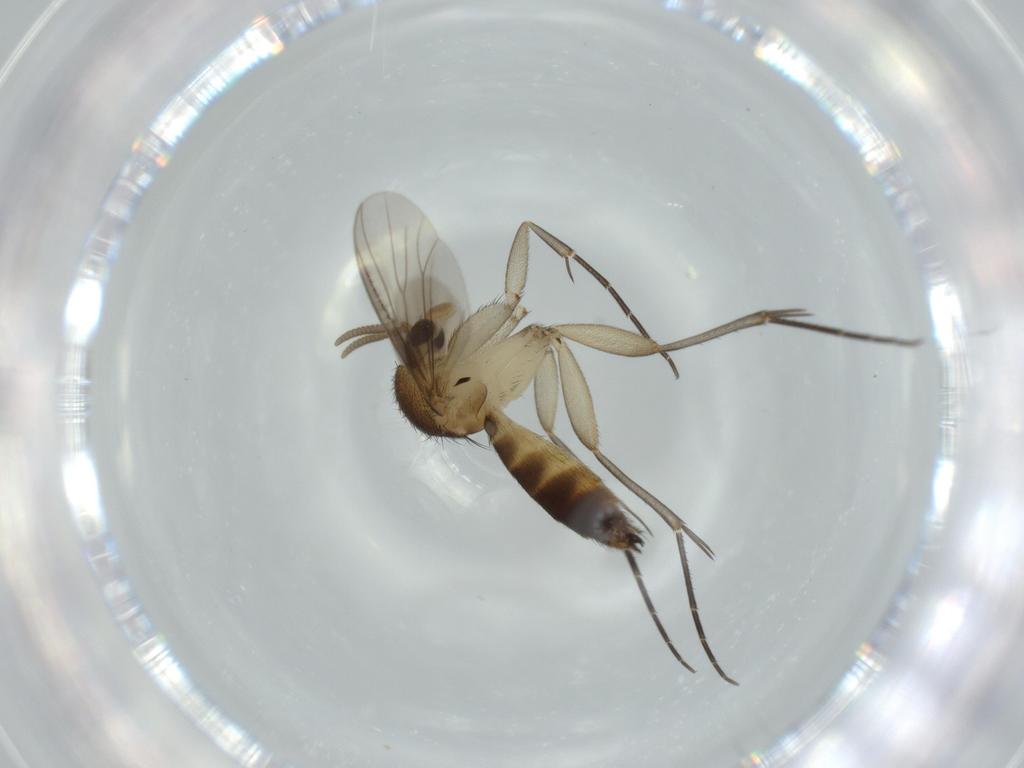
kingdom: Animalia
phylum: Arthropoda
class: Insecta
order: Diptera
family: Mycetophilidae
